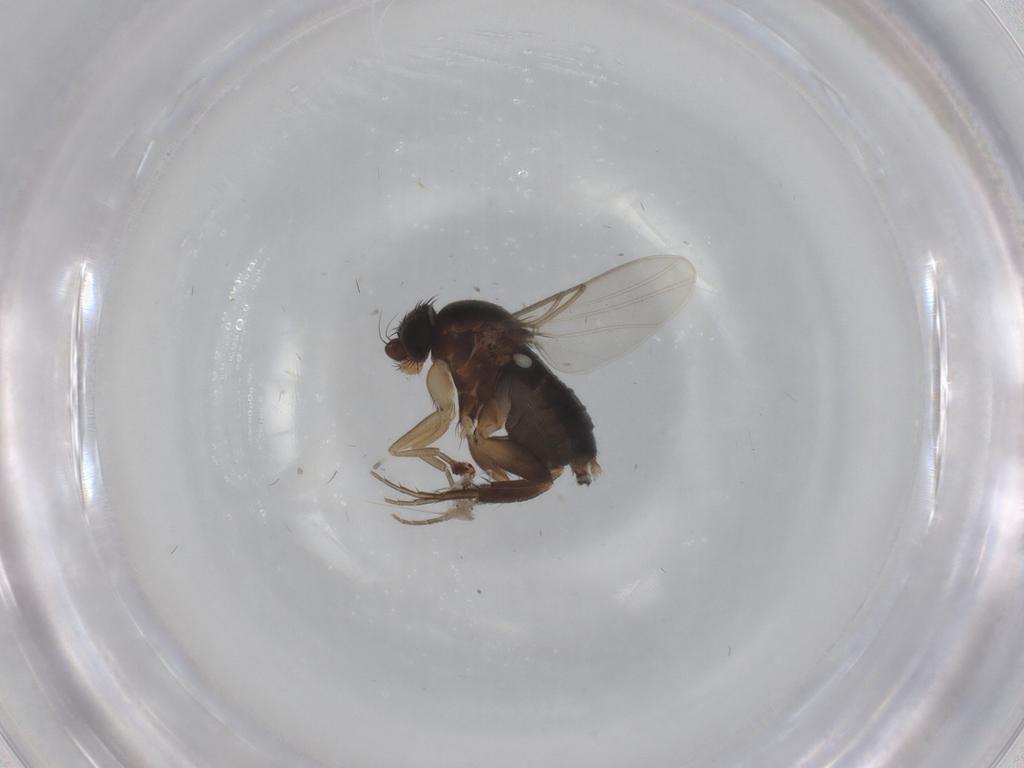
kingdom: Animalia
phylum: Arthropoda
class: Insecta
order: Diptera
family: Phoridae
